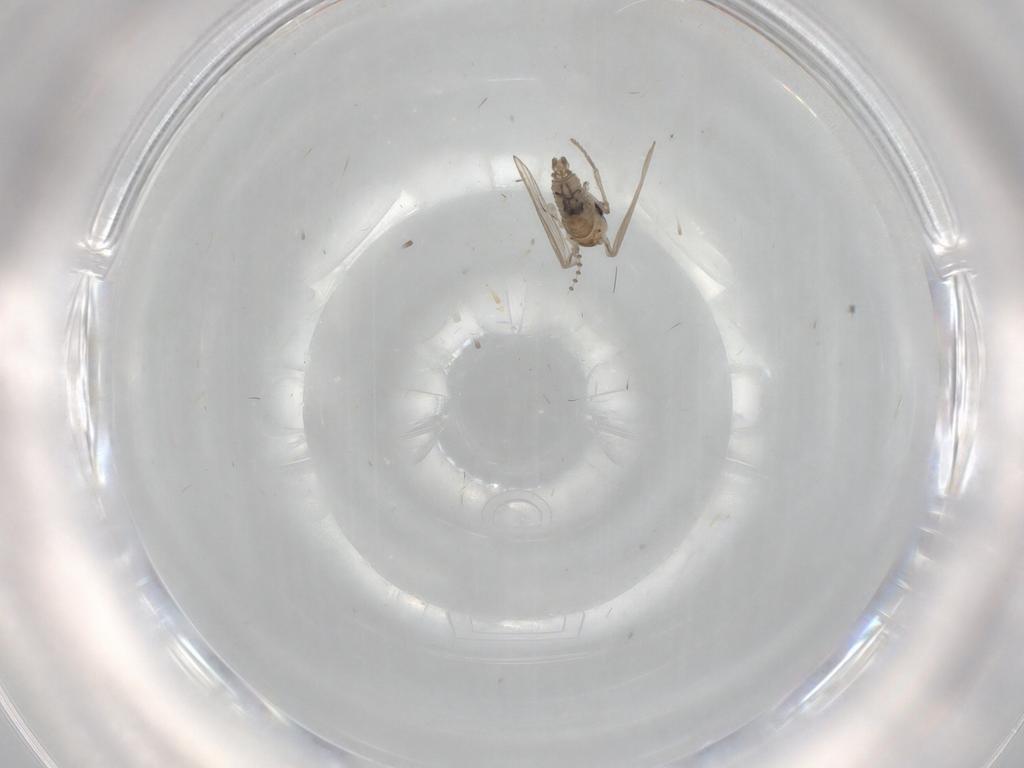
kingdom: Animalia
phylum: Arthropoda
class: Insecta
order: Diptera
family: Psychodidae
